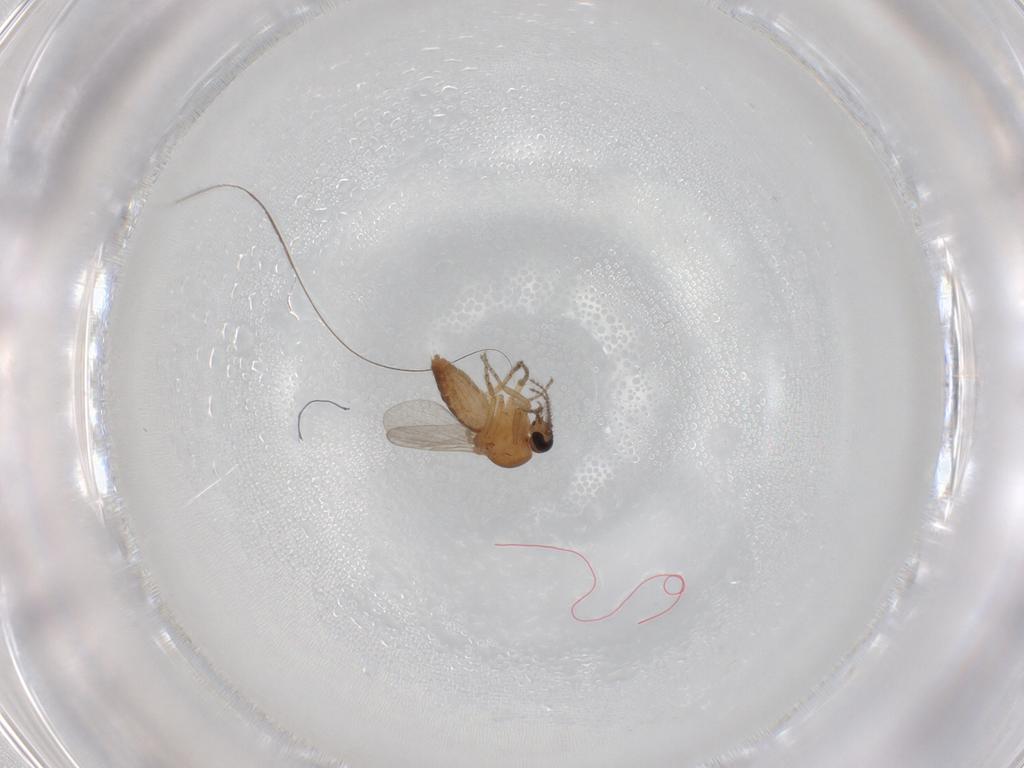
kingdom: Animalia
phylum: Arthropoda
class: Insecta
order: Diptera
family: Ceratopogonidae
